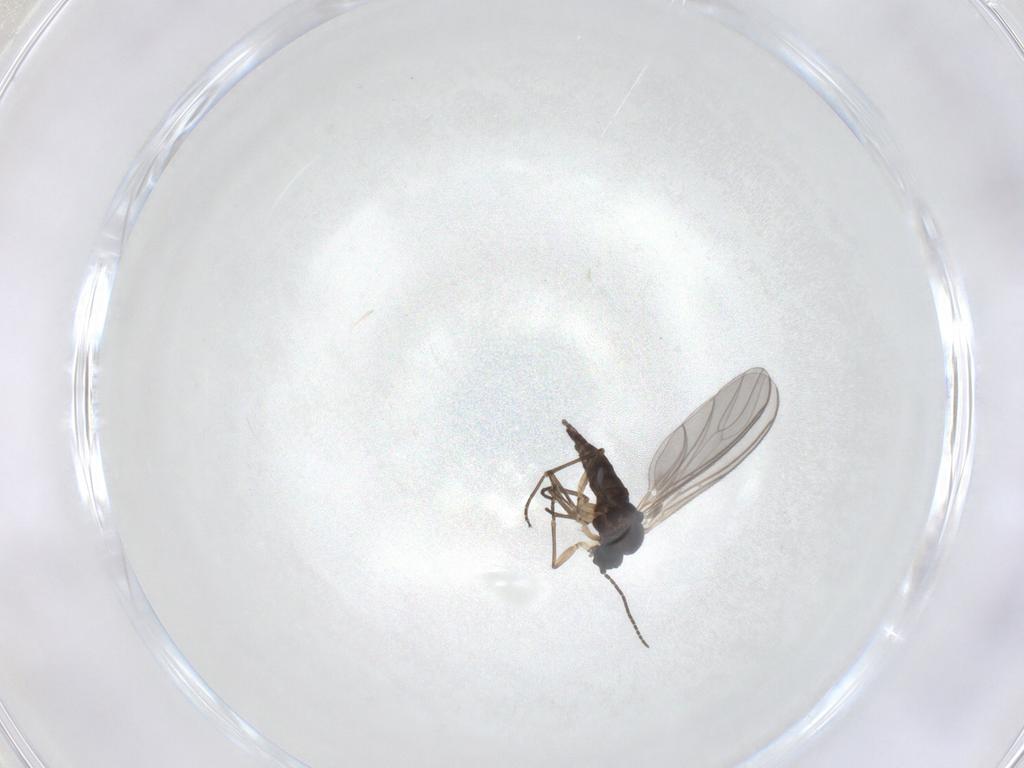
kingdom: Animalia
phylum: Arthropoda
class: Insecta
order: Diptera
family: Sciaridae
